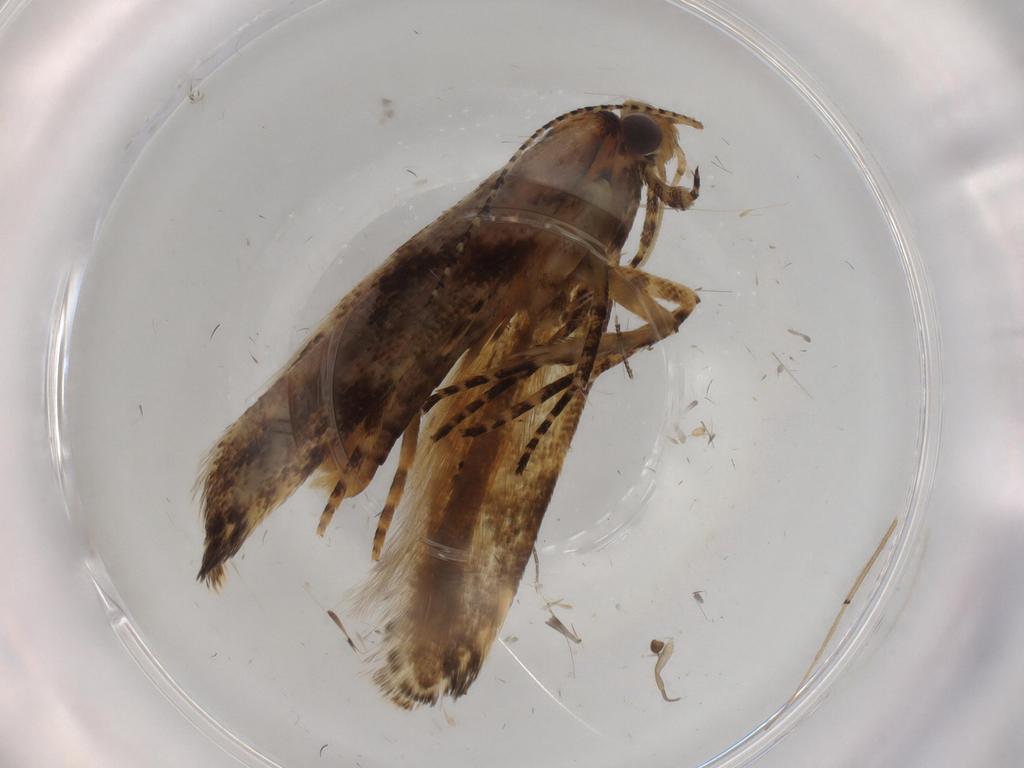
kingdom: Animalia
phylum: Arthropoda
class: Insecta
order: Lepidoptera
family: Gelechiidae
